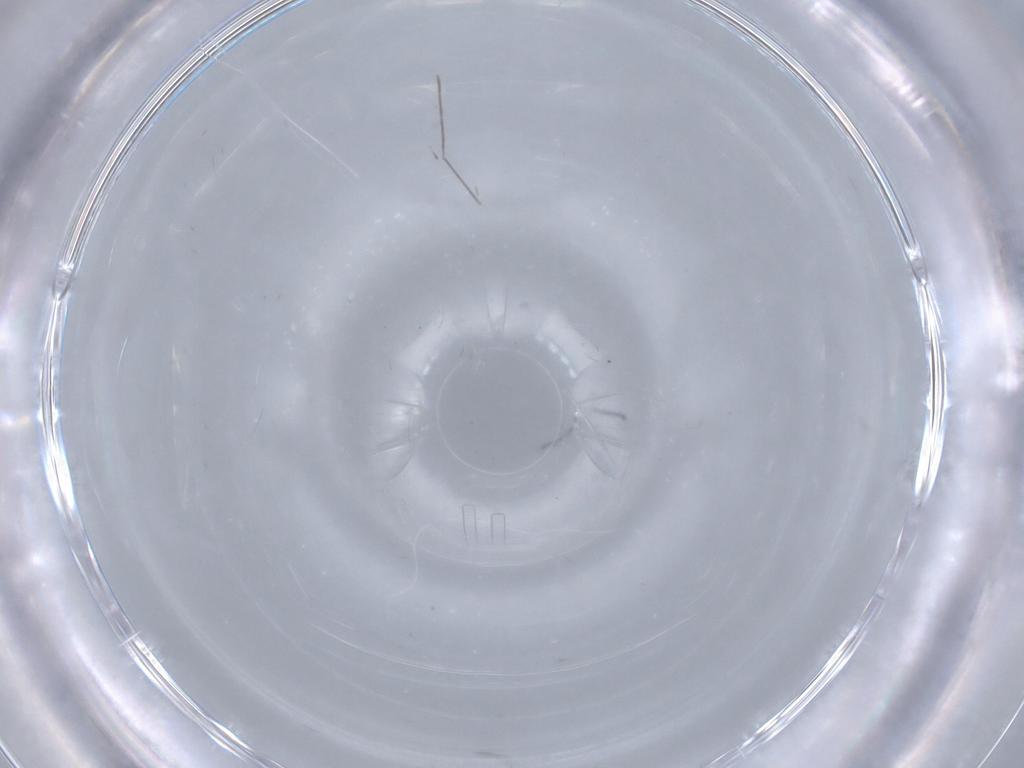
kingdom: Animalia
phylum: Arthropoda
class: Insecta
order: Diptera
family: Chironomidae
